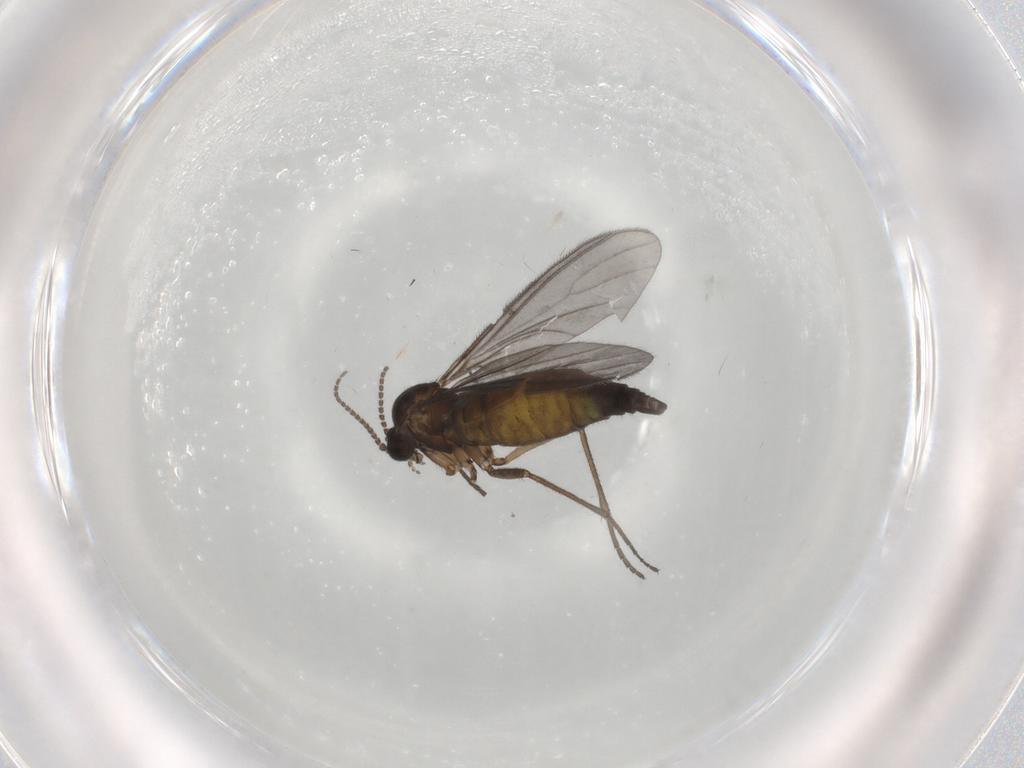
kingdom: Animalia
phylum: Arthropoda
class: Insecta
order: Diptera
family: Sciaridae
